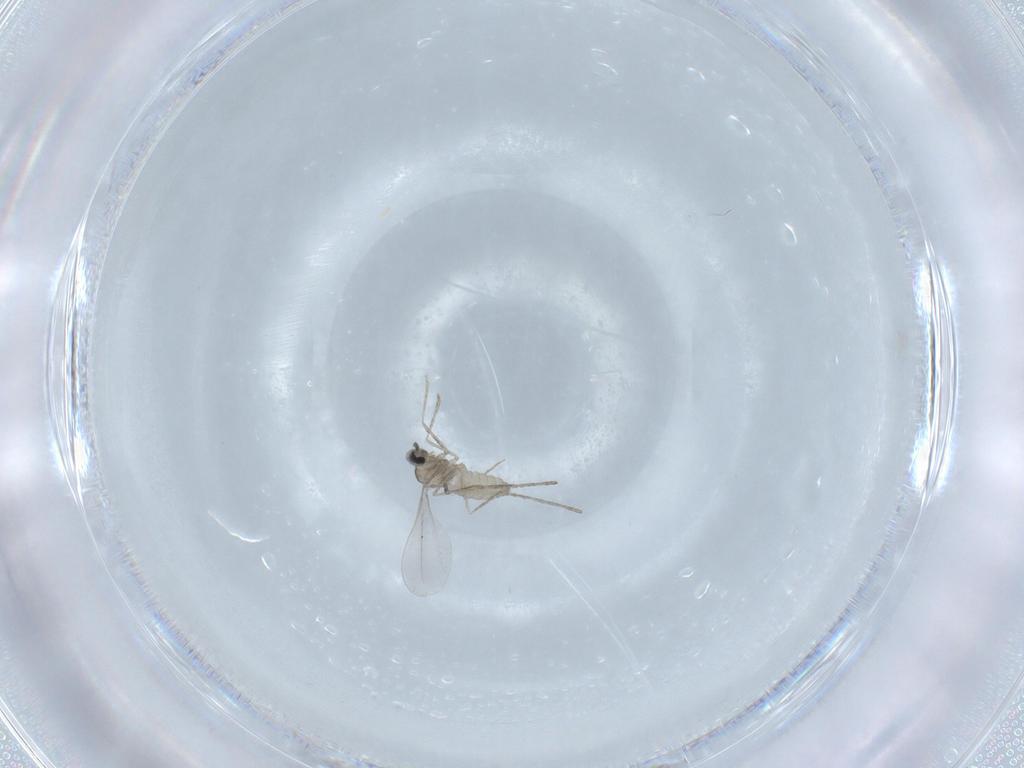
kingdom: Animalia
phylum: Arthropoda
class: Insecta
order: Diptera
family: Cecidomyiidae
